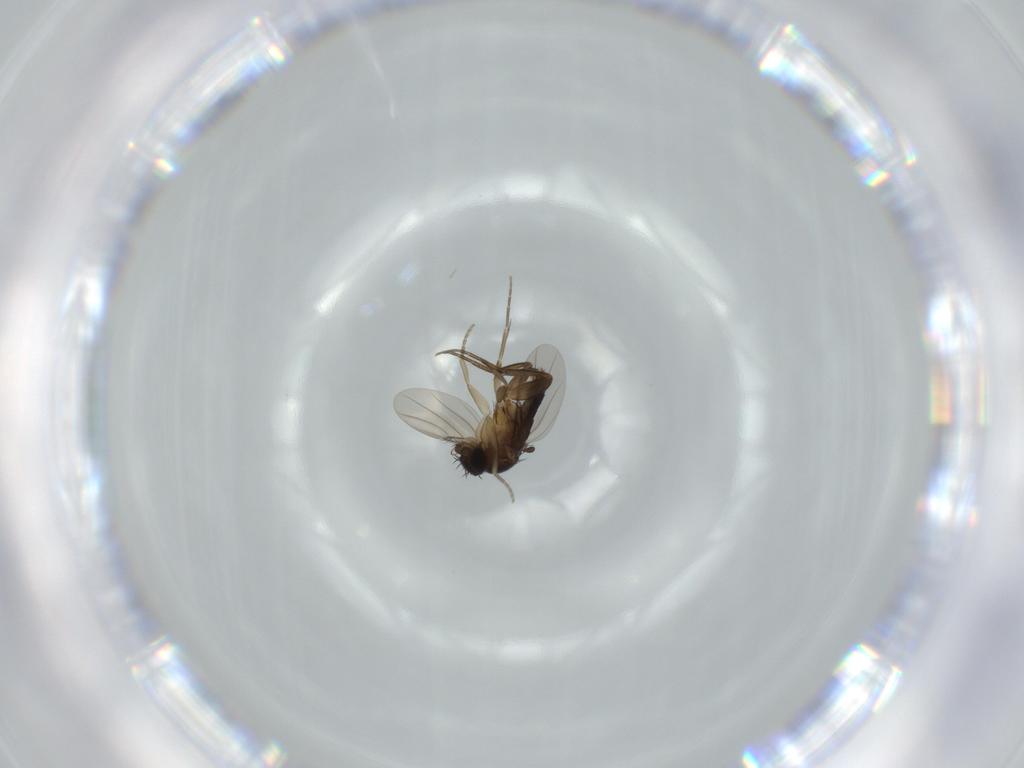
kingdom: Animalia
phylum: Arthropoda
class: Insecta
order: Diptera
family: Phoridae
